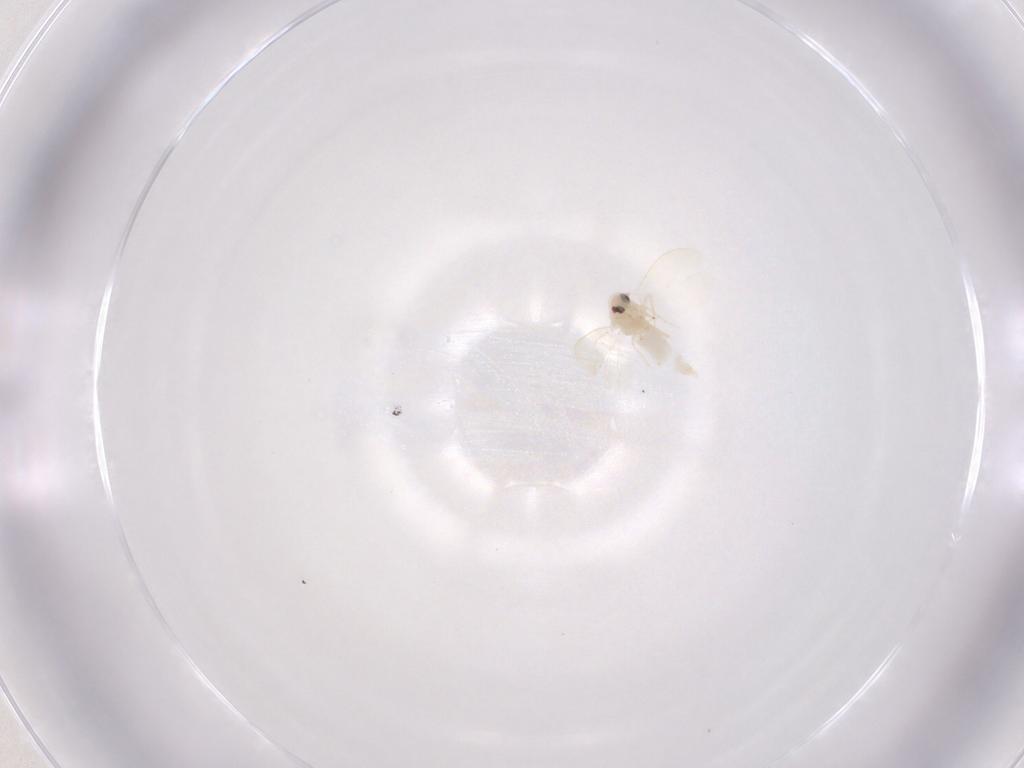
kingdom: Animalia
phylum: Arthropoda
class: Insecta
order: Hemiptera
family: Aleyrodidae
